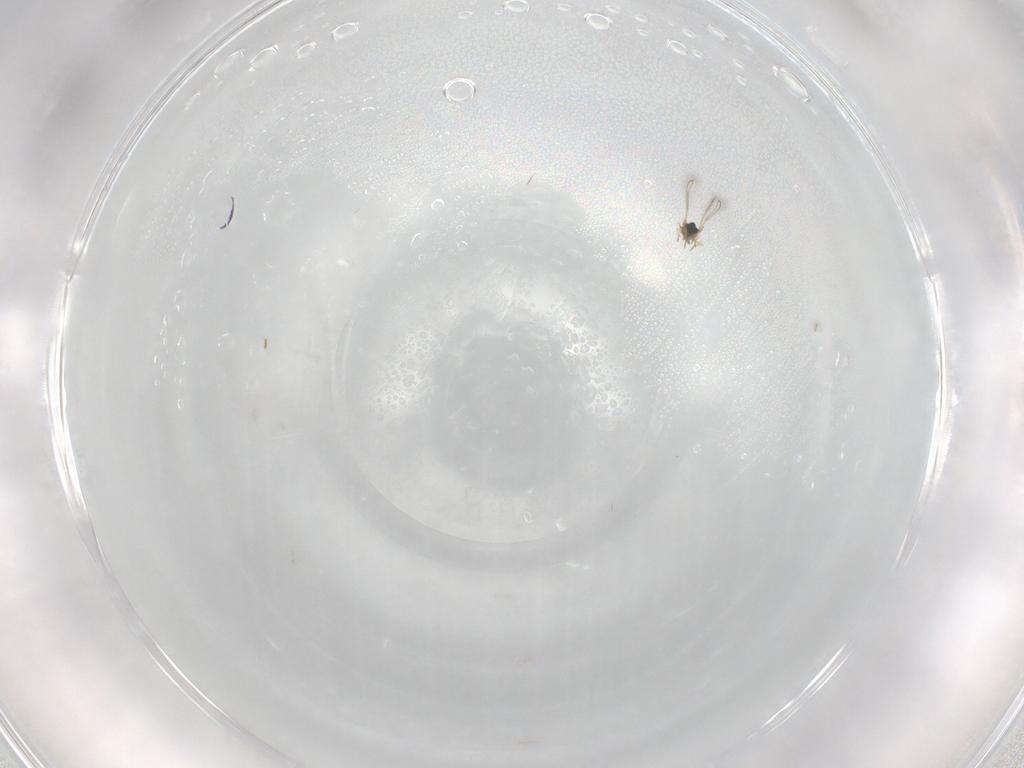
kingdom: Animalia
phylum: Arthropoda
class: Insecta
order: Hymenoptera
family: Mymaridae
